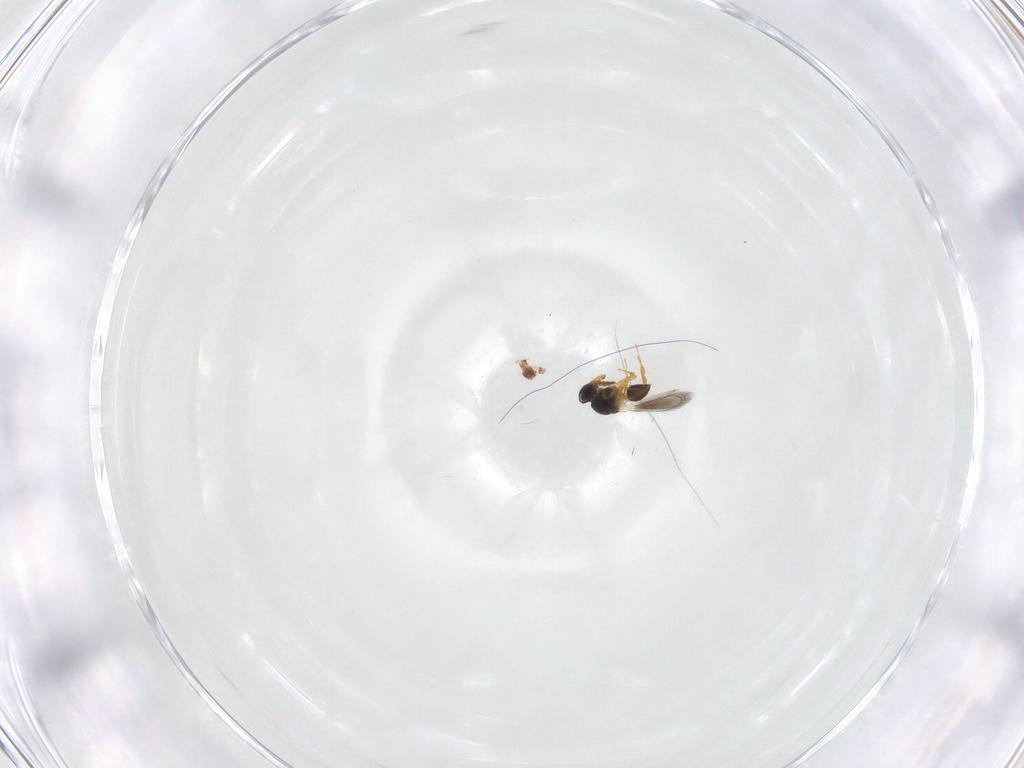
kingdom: Animalia
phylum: Arthropoda
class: Insecta
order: Hymenoptera
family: Platygastridae
